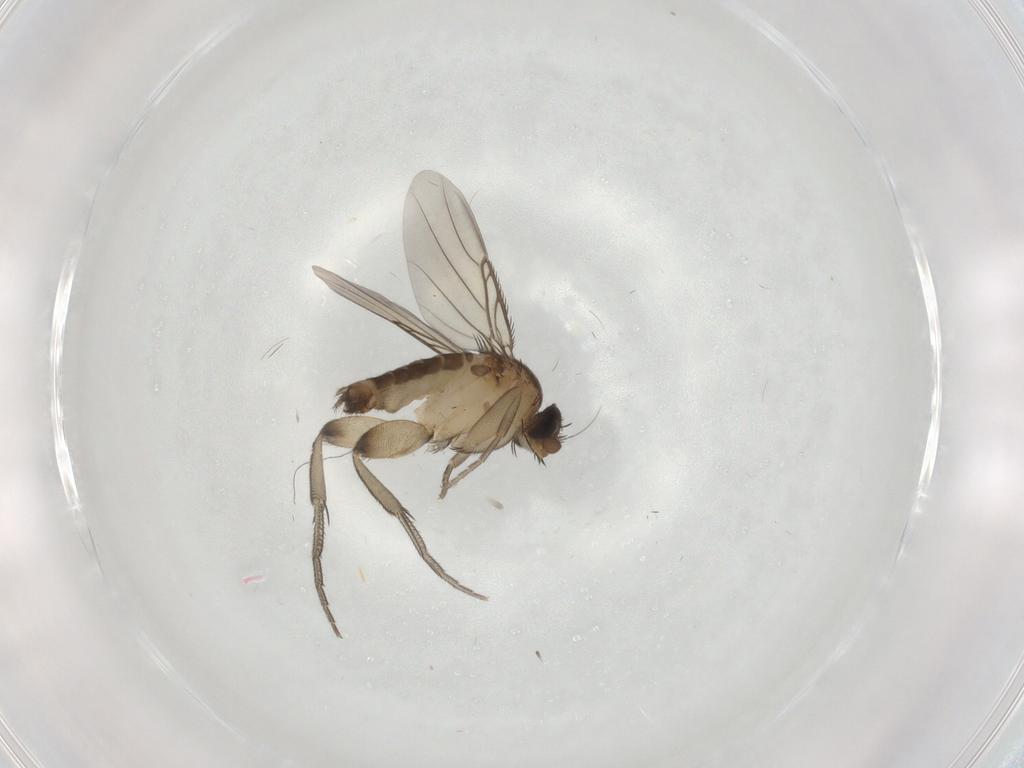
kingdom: Animalia
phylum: Arthropoda
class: Insecta
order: Diptera
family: Phoridae
